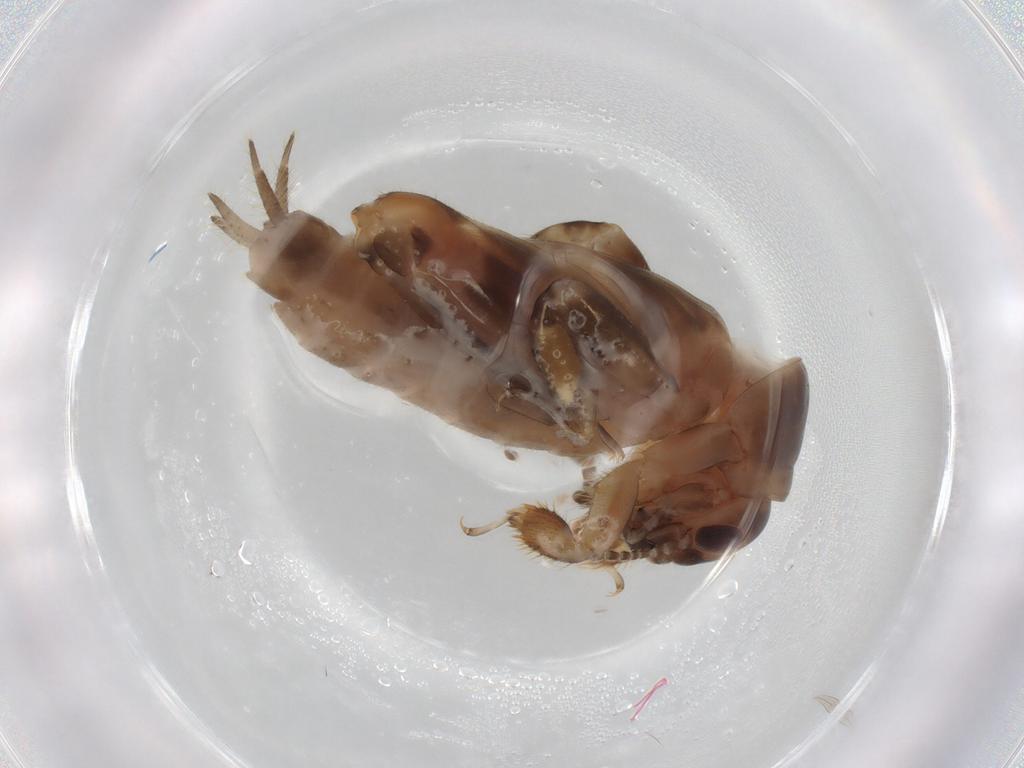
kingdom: Animalia
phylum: Arthropoda
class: Insecta
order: Orthoptera
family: Tridactylidae
